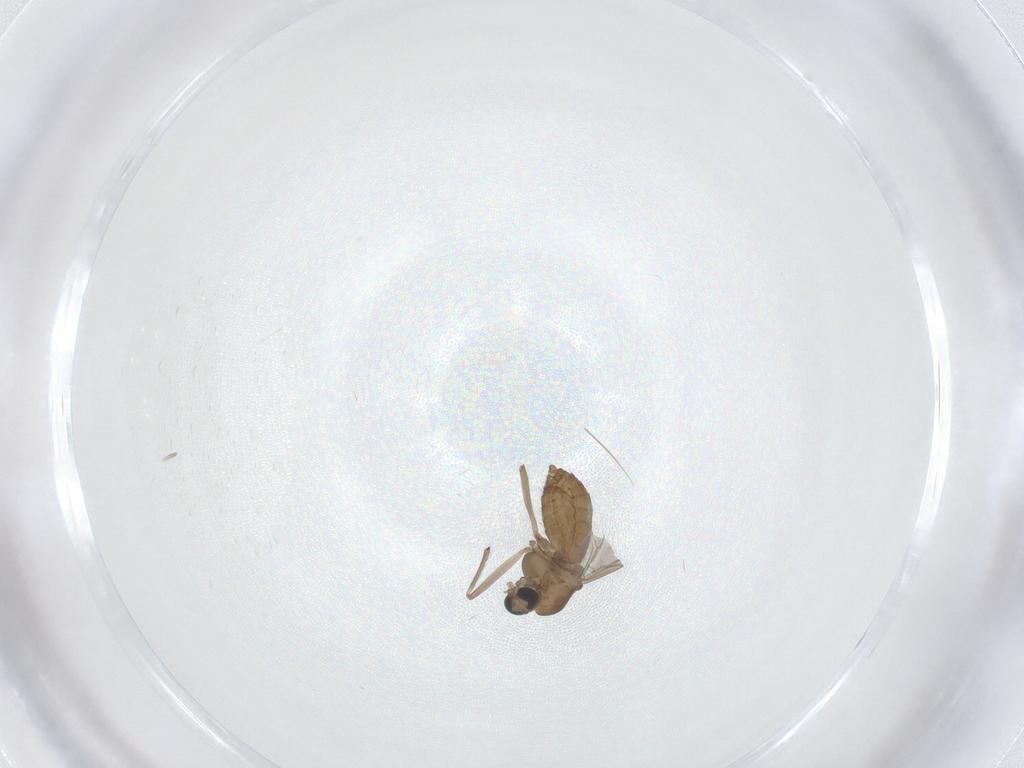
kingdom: Animalia
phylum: Arthropoda
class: Insecta
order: Diptera
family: Chironomidae
